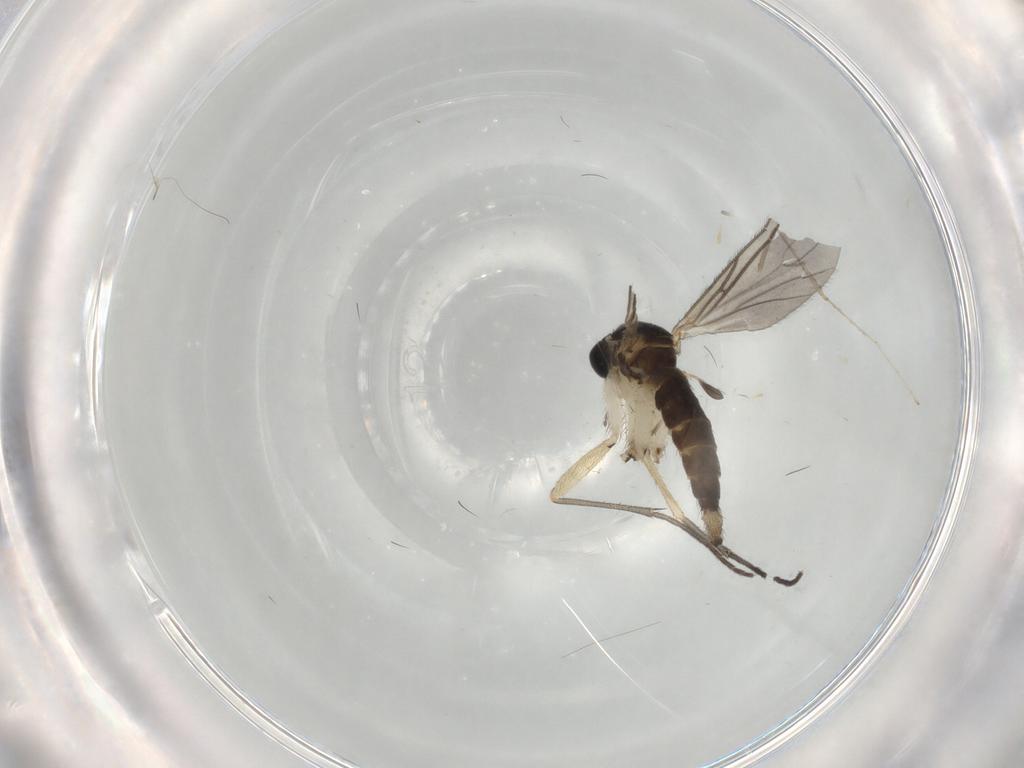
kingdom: Animalia
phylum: Arthropoda
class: Insecta
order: Diptera
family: Sciaridae
